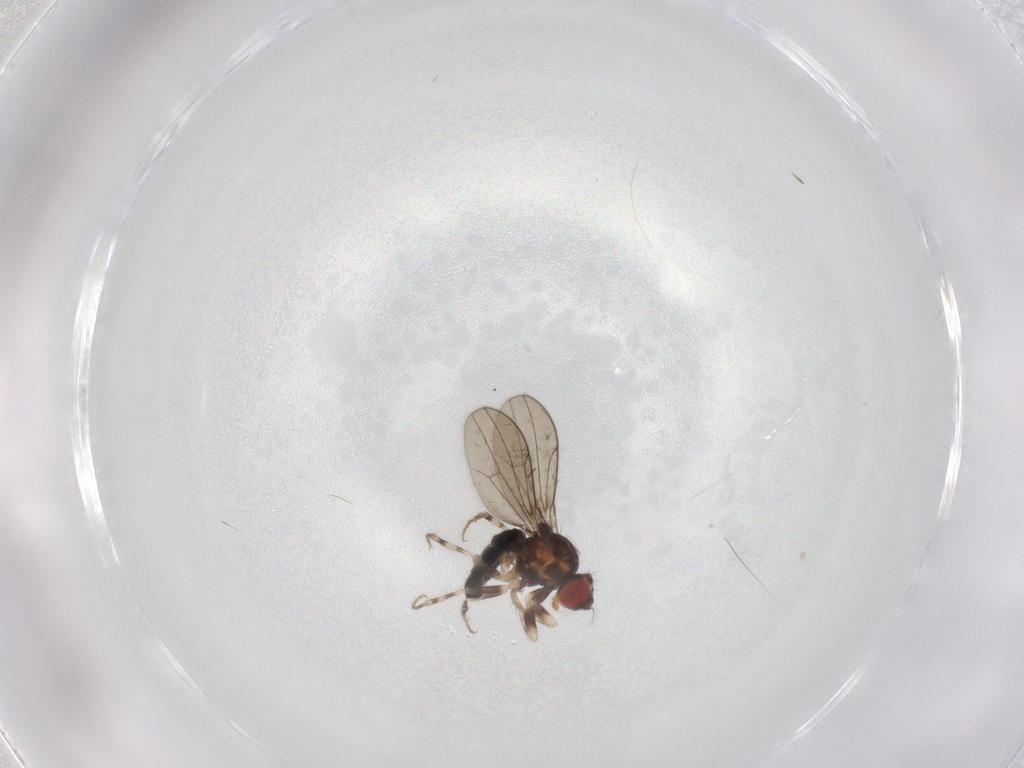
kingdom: Animalia
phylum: Arthropoda
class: Insecta
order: Diptera
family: Drosophilidae
